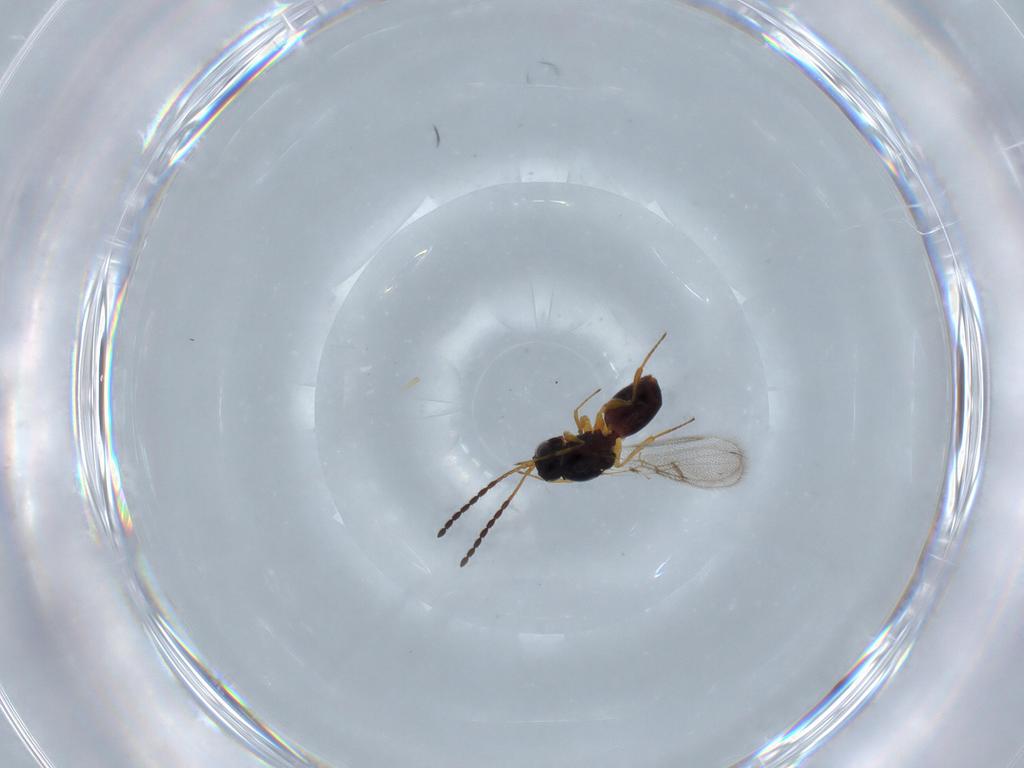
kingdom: Animalia
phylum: Arthropoda
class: Insecta
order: Hymenoptera
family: Figitidae
